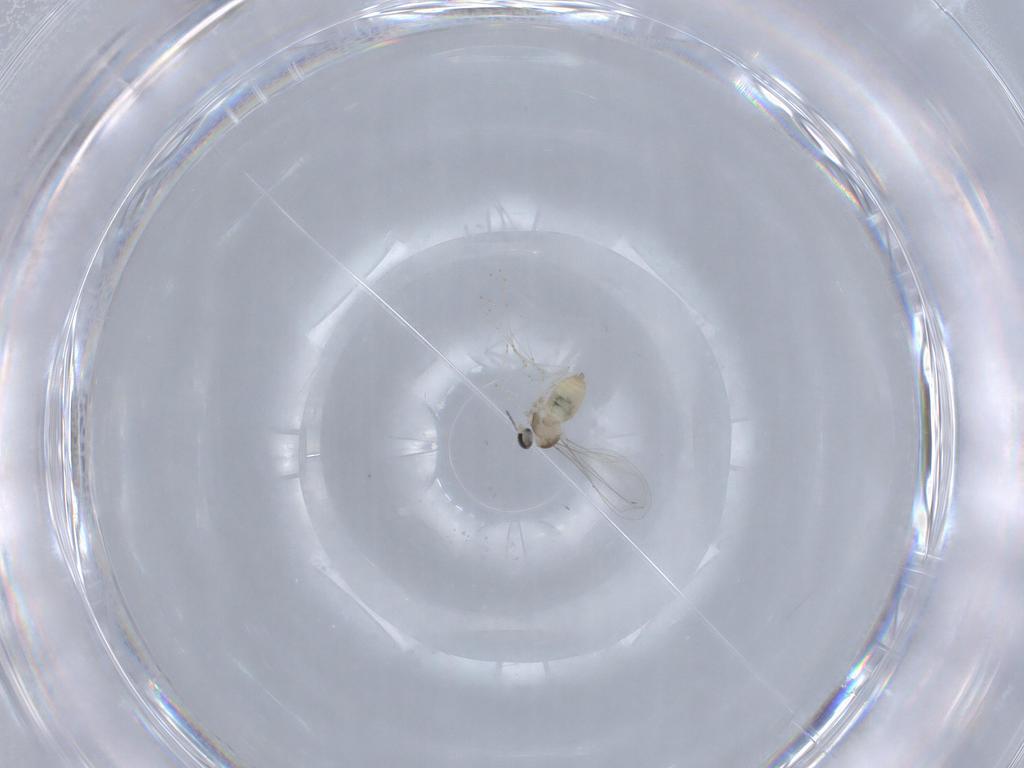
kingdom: Animalia
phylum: Arthropoda
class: Insecta
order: Diptera
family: Cecidomyiidae
